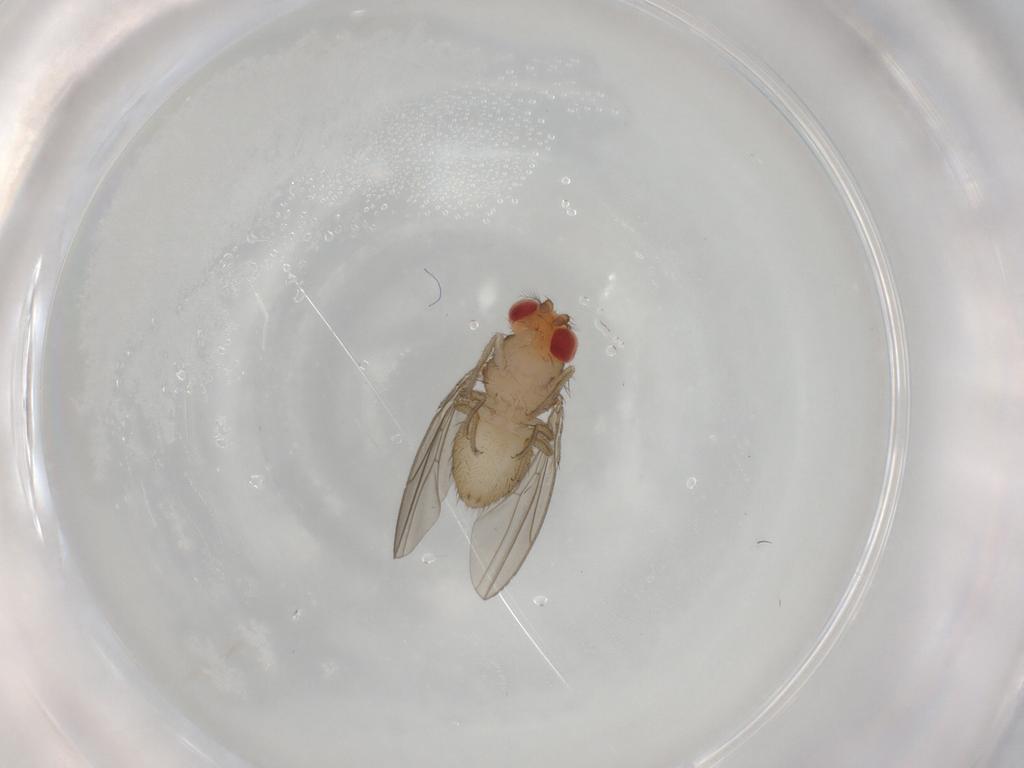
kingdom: Animalia
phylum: Arthropoda
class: Insecta
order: Diptera
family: Drosophilidae
